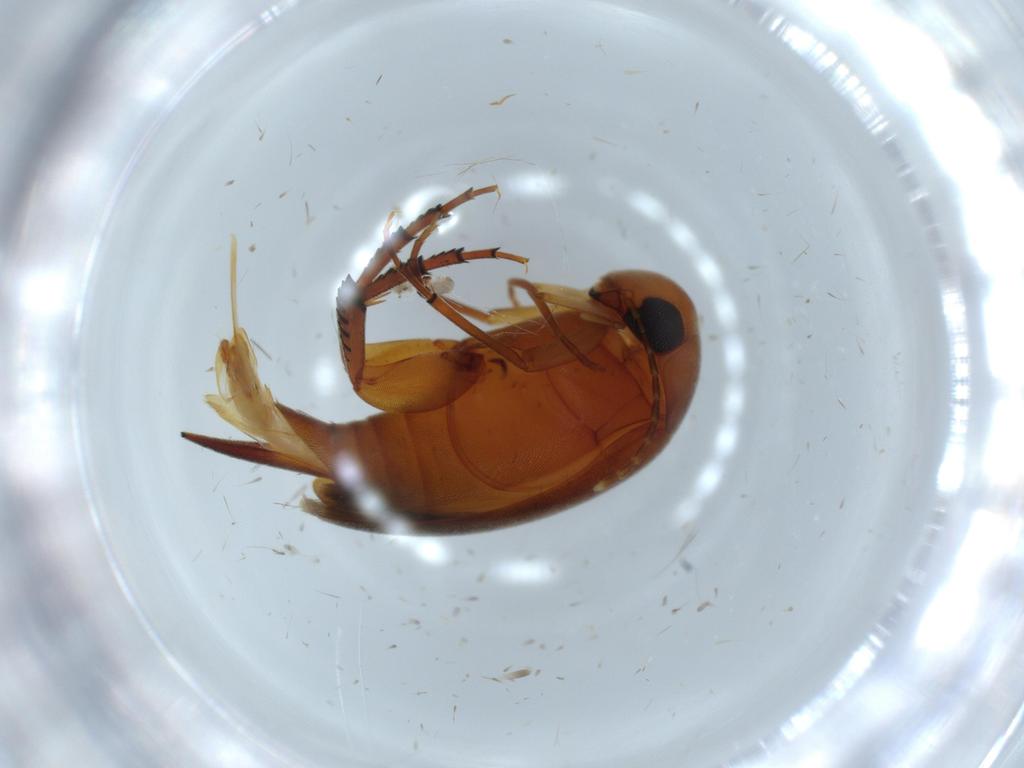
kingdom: Animalia
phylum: Arthropoda
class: Insecta
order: Coleoptera
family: Mordellidae
